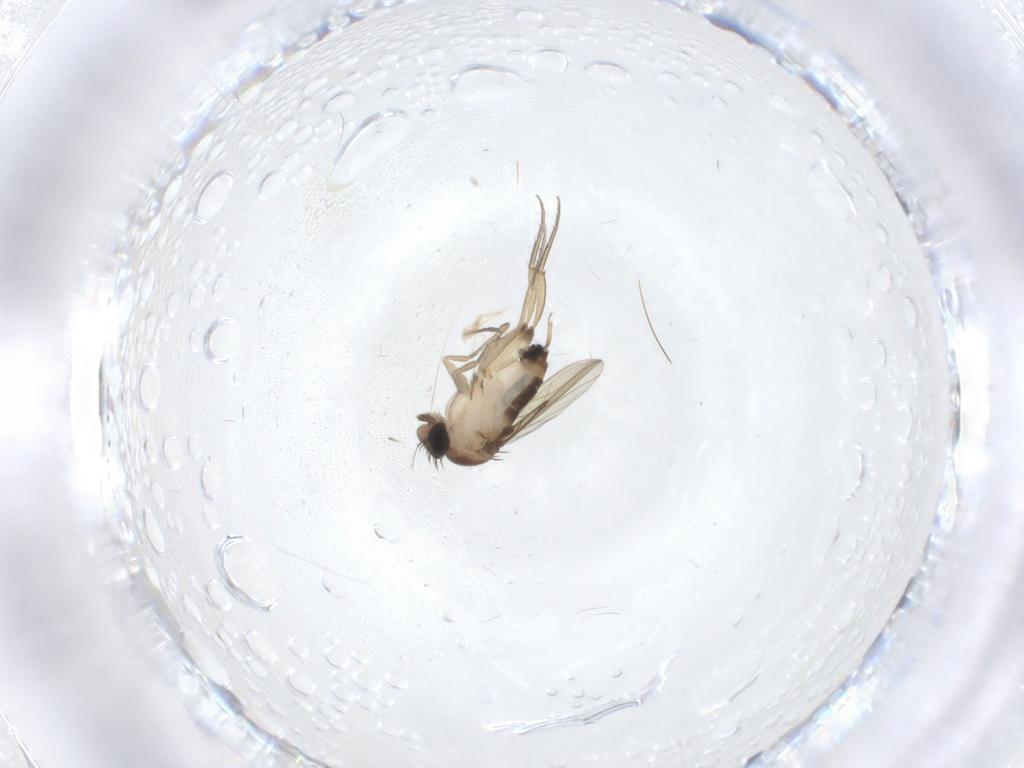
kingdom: Animalia
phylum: Arthropoda
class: Insecta
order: Diptera
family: Phoridae
